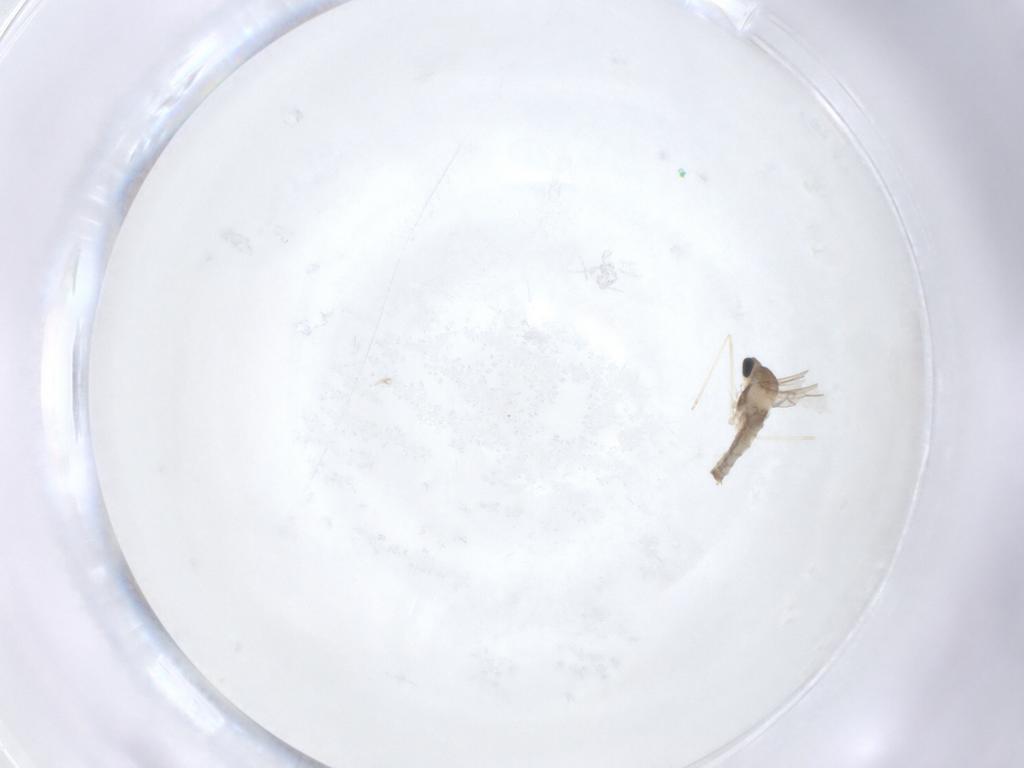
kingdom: Animalia
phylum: Arthropoda
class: Insecta
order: Diptera
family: Cecidomyiidae
